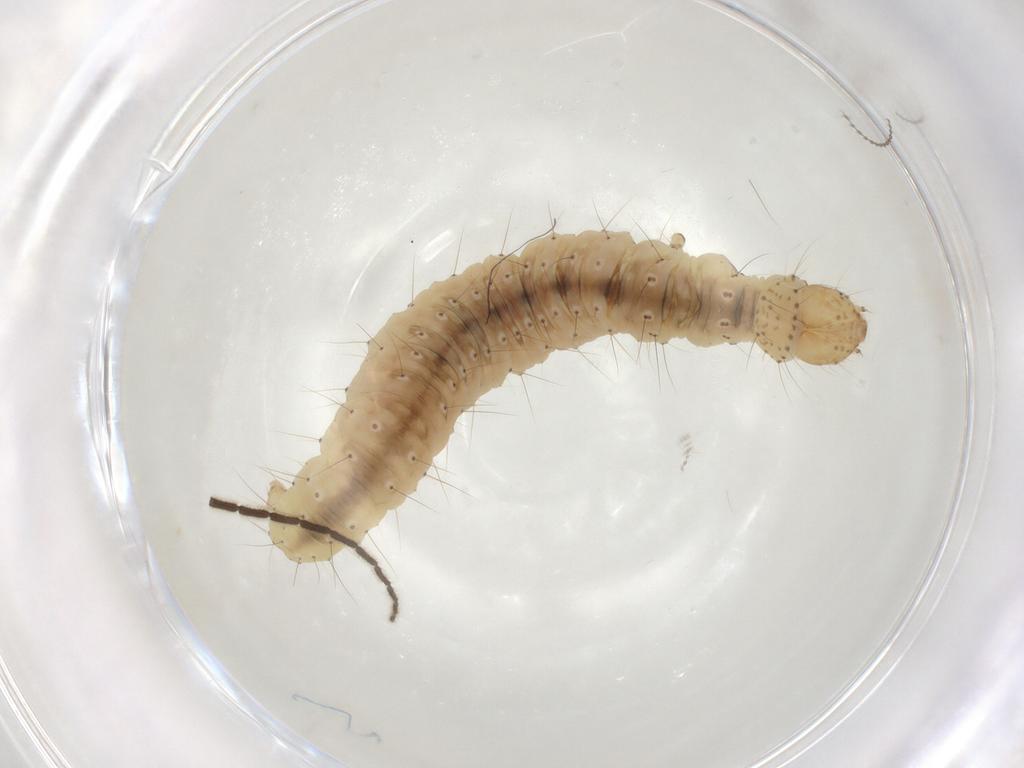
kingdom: Animalia
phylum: Arthropoda
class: Insecta
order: Lepidoptera
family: Yponomeutidae
